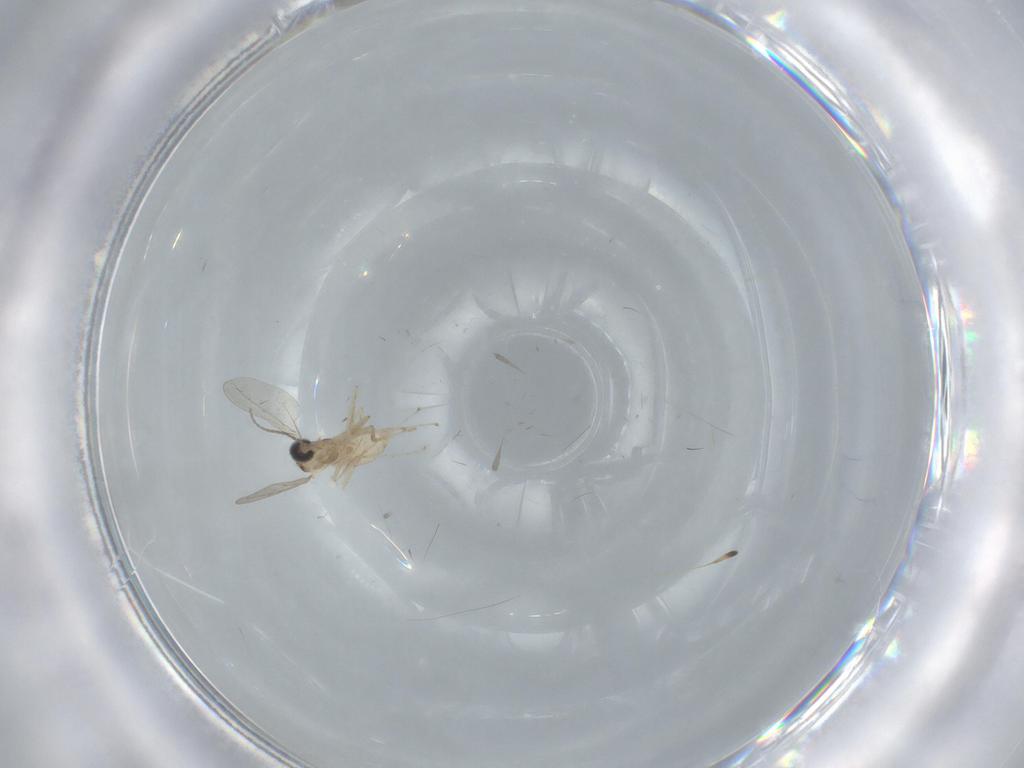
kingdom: Animalia
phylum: Arthropoda
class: Insecta
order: Diptera
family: Cecidomyiidae
